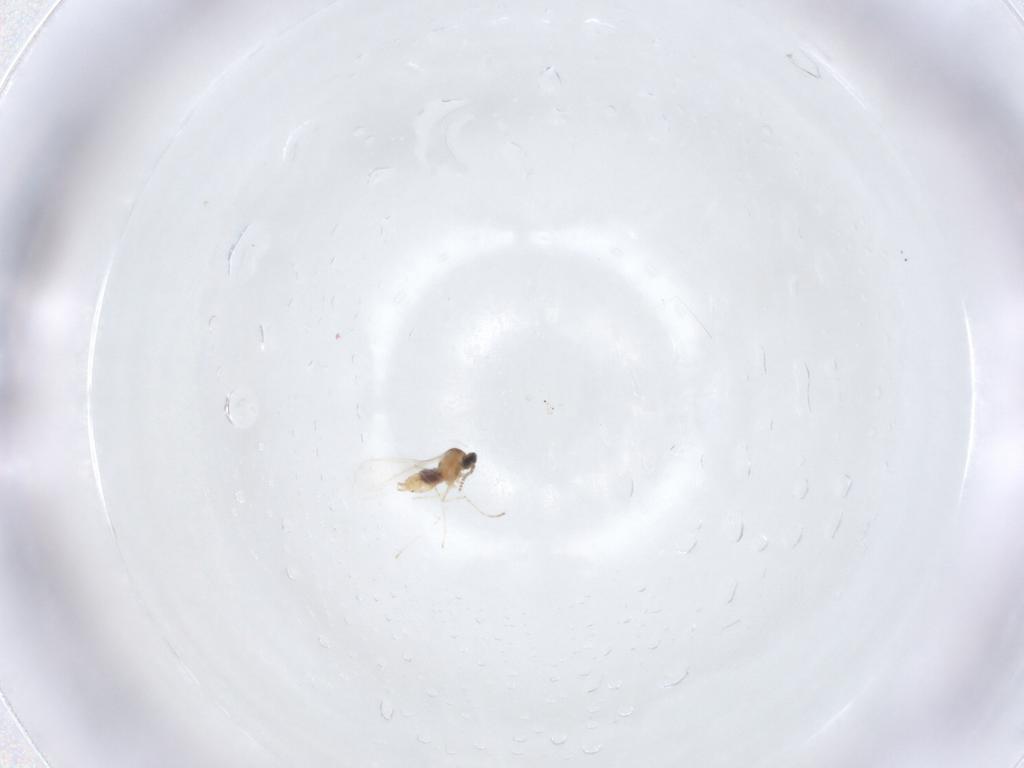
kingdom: Animalia
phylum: Arthropoda
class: Insecta
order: Diptera
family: Cecidomyiidae
